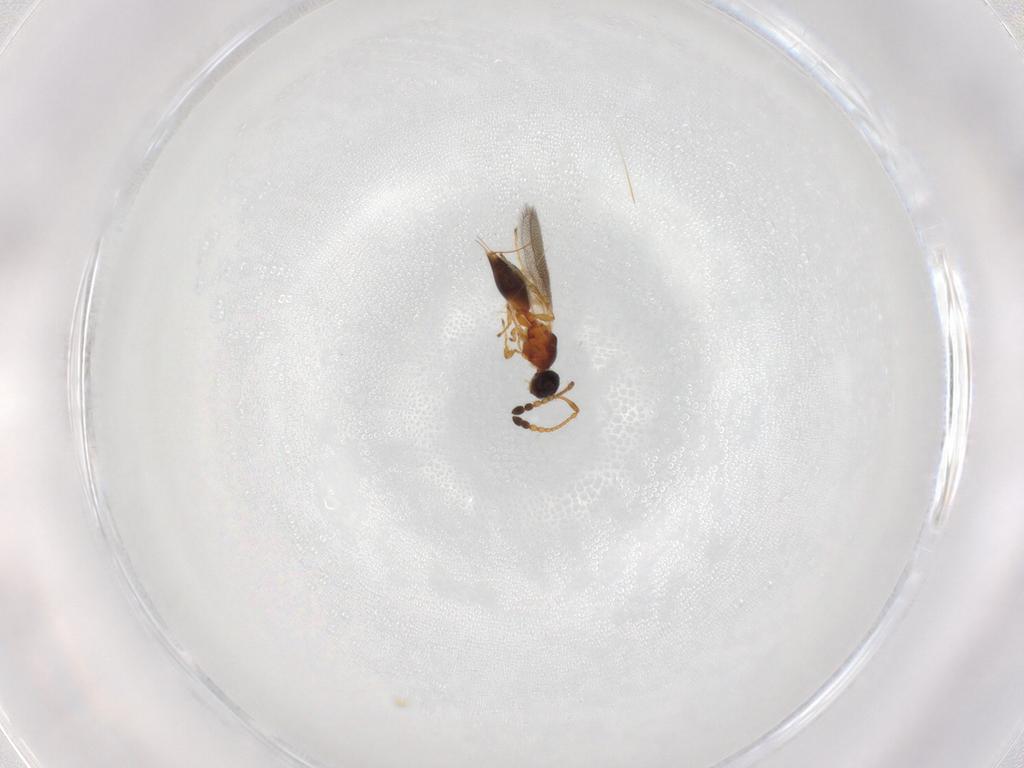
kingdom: Animalia
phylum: Arthropoda
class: Insecta
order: Hymenoptera
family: Diapriidae
